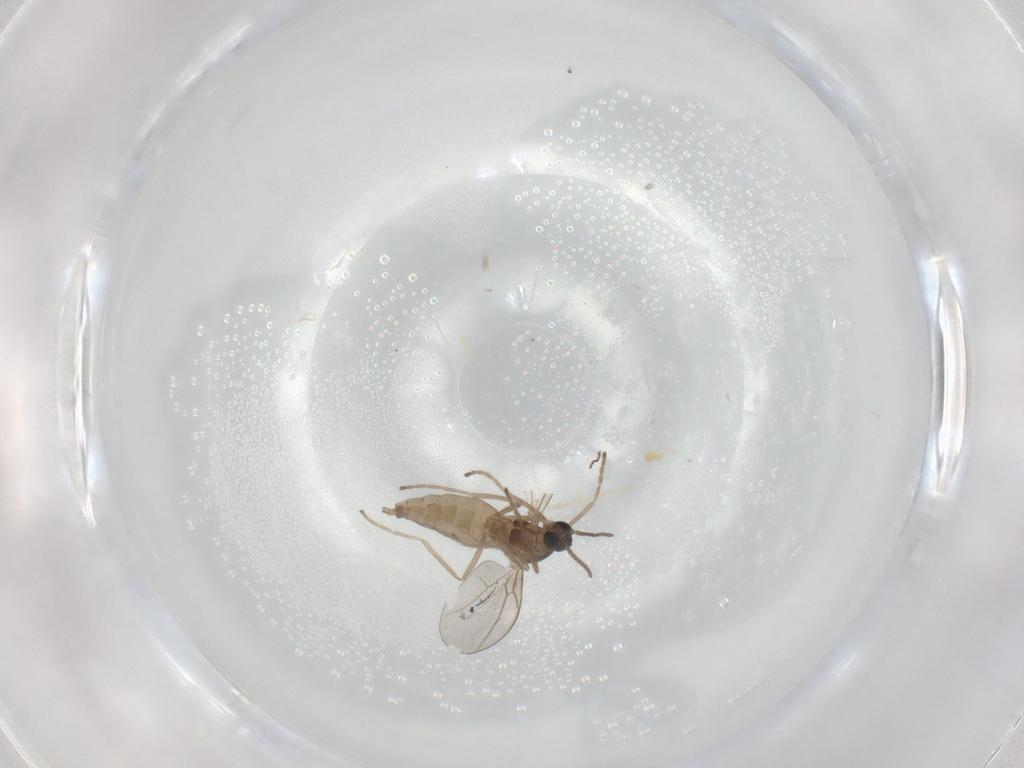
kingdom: Animalia
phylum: Arthropoda
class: Insecta
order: Diptera
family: Cecidomyiidae
